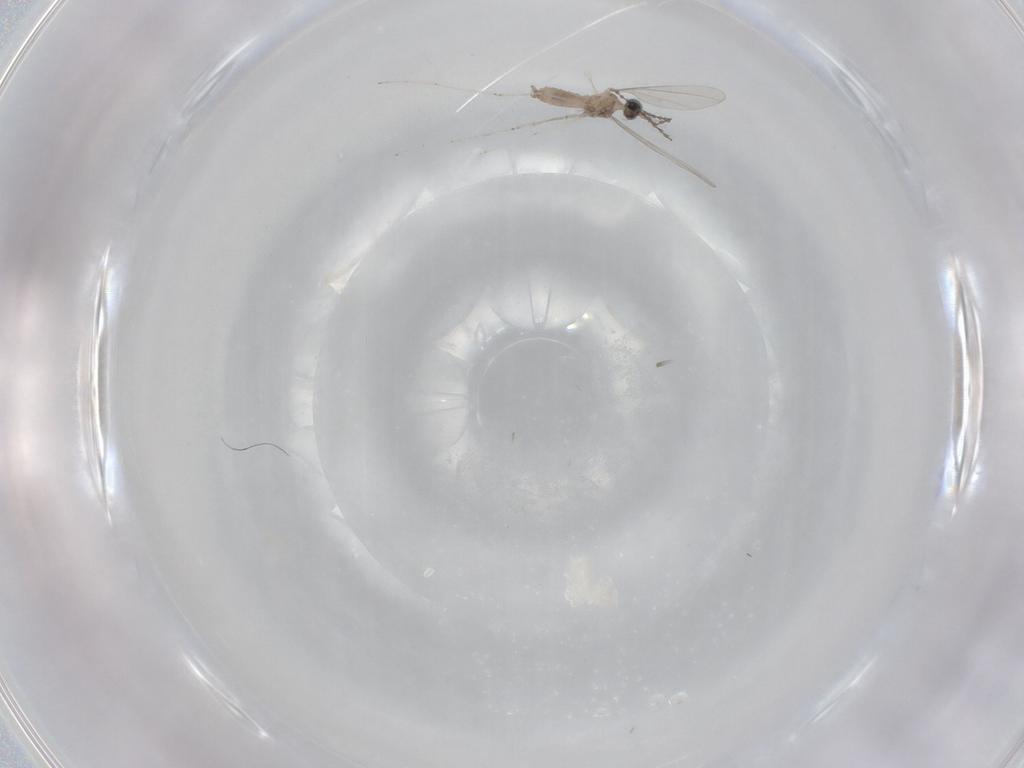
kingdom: Animalia
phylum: Arthropoda
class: Insecta
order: Diptera
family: Cecidomyiidae
